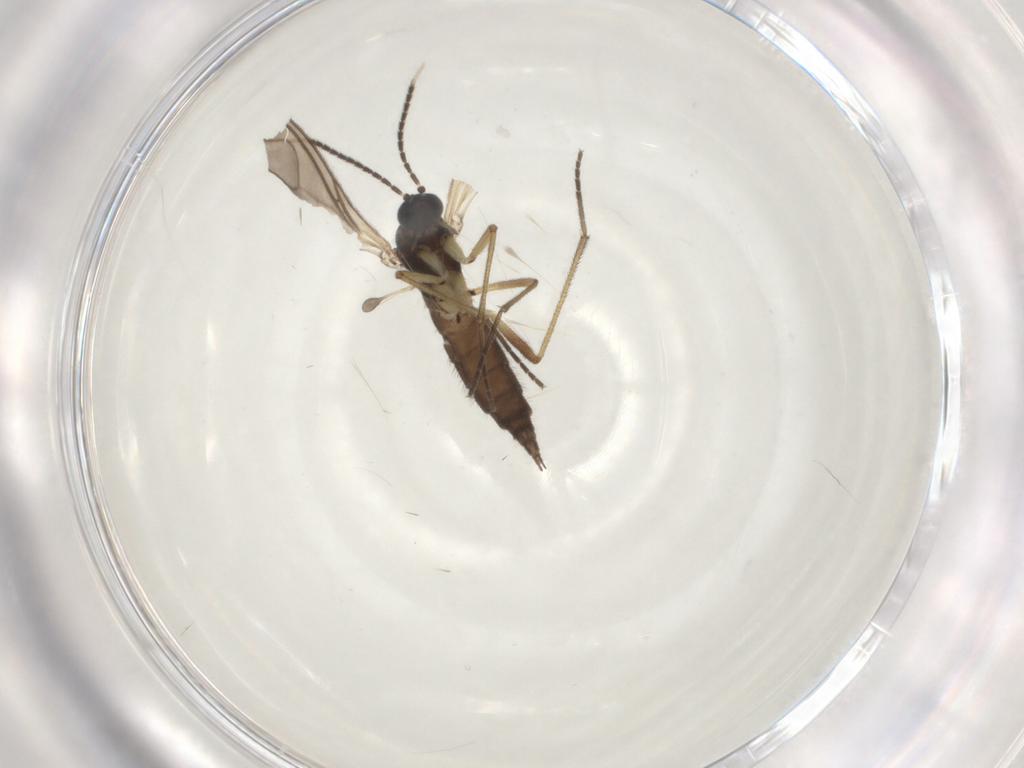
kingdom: Animalia
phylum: Arthropoda
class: Insecta
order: Diptera
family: Sciaridae
